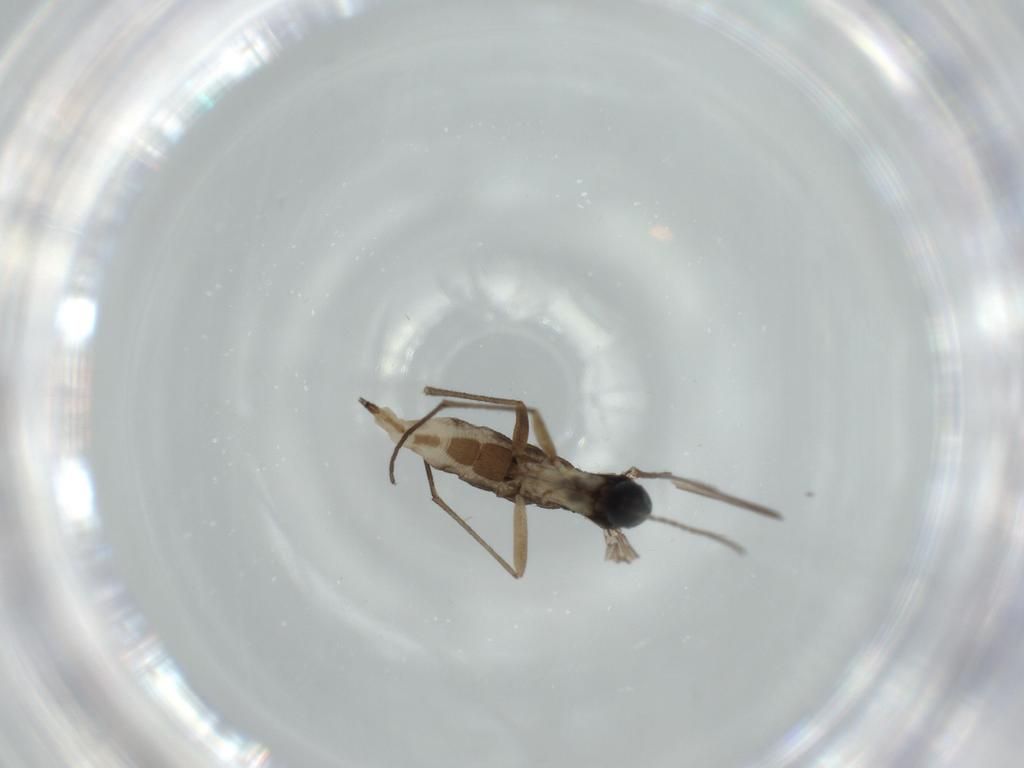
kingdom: Animalia
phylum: Arthropoda
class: Insecta
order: Diptera
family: Sciaridae
